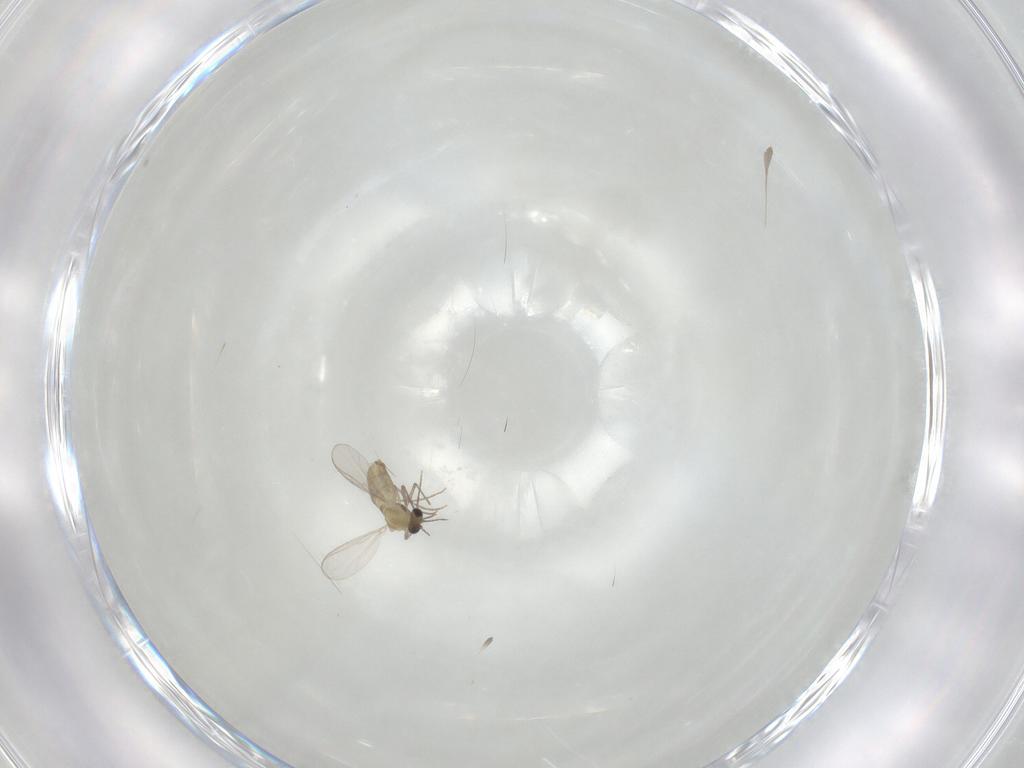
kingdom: Animalia
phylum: Arthropoda
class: Insecta
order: Diptera
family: Chironomidae
